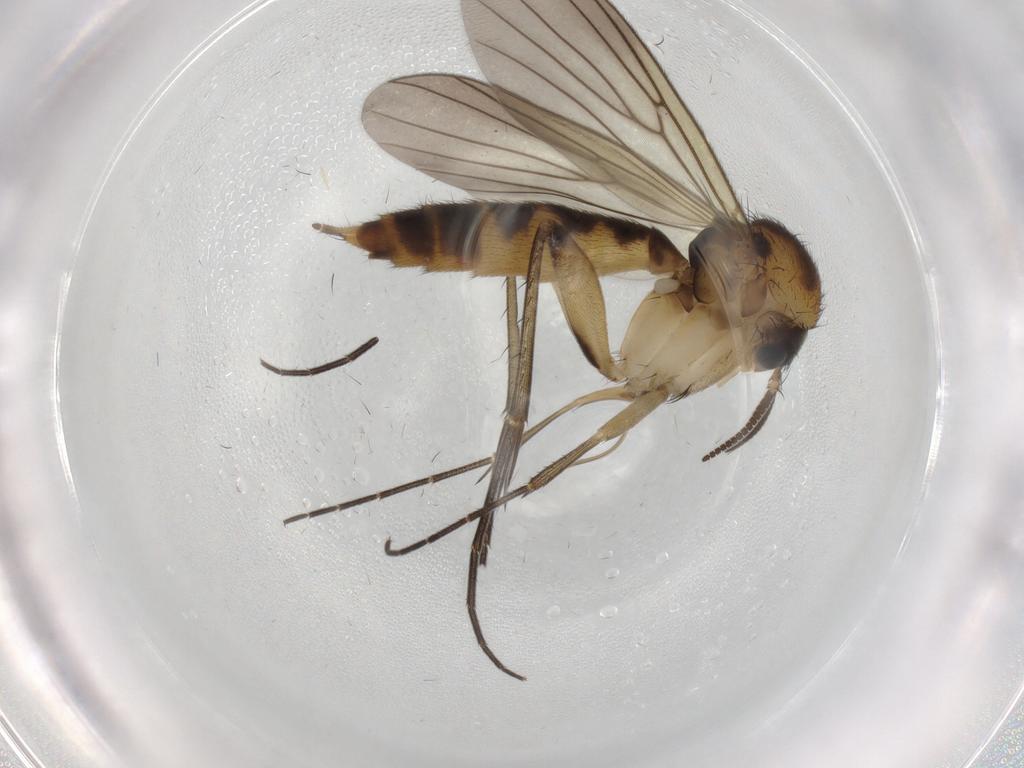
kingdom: Animalia
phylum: Arthropoda
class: Insecta
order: Diptera
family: Mycetophilidae
